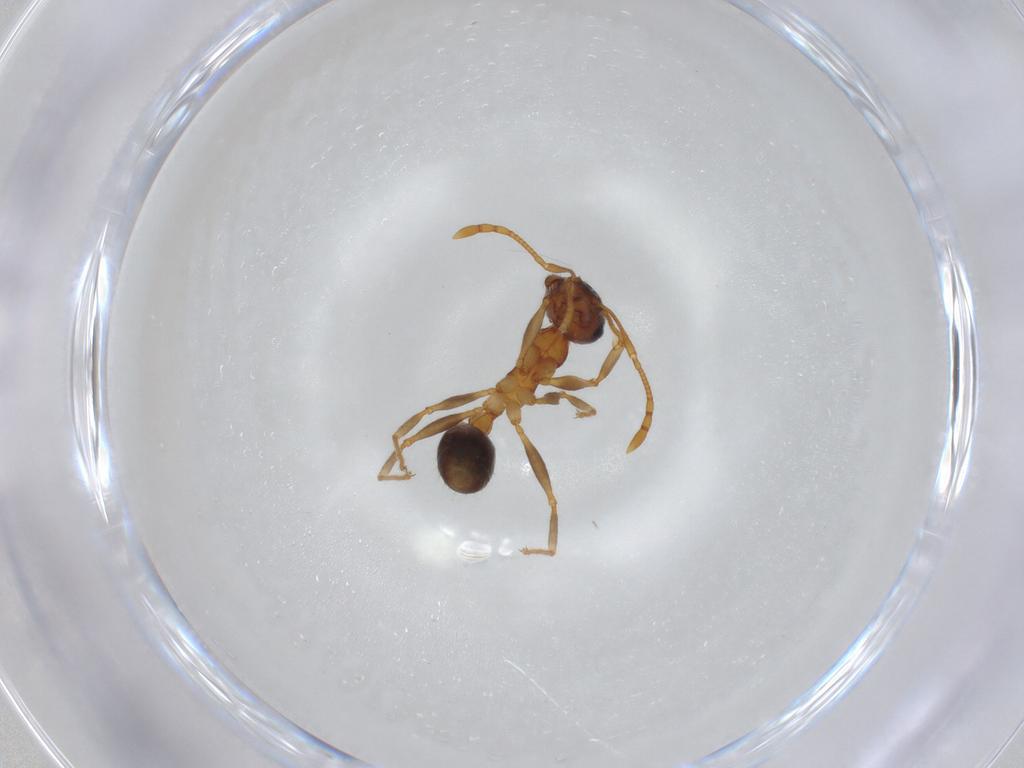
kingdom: Animalia
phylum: Arthropoda
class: Insecta
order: Hymenoptera
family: Formicidae
